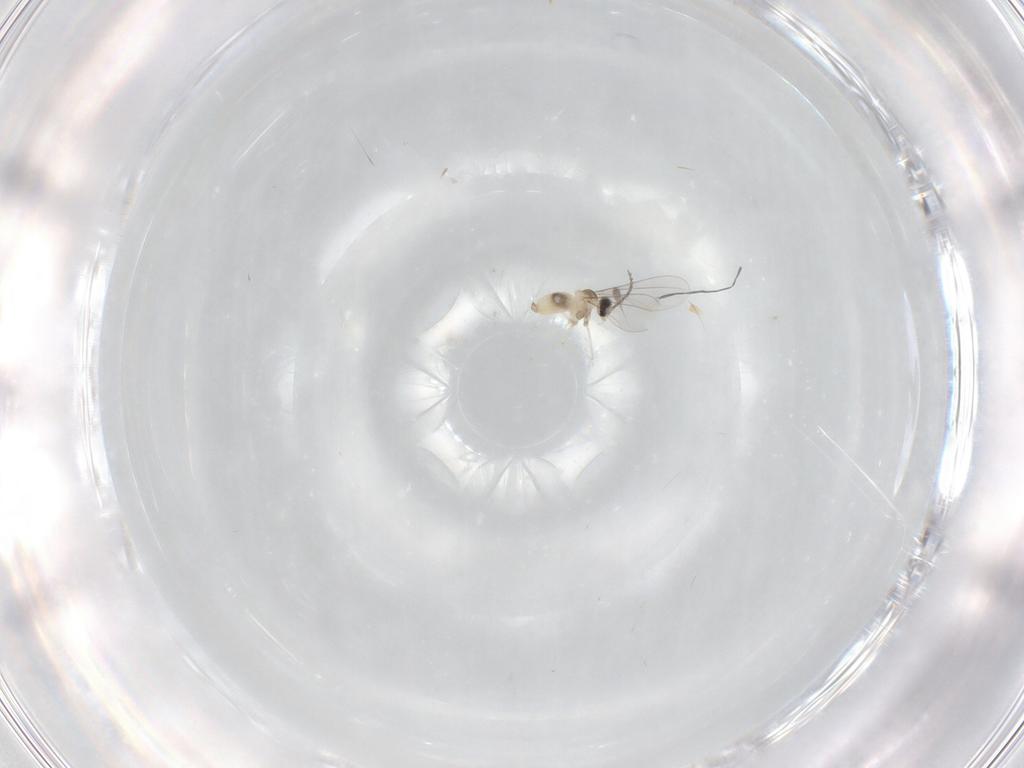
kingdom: Animalia
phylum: Arthropoda
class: Insecta
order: Diptera
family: Cecidomyiidae
